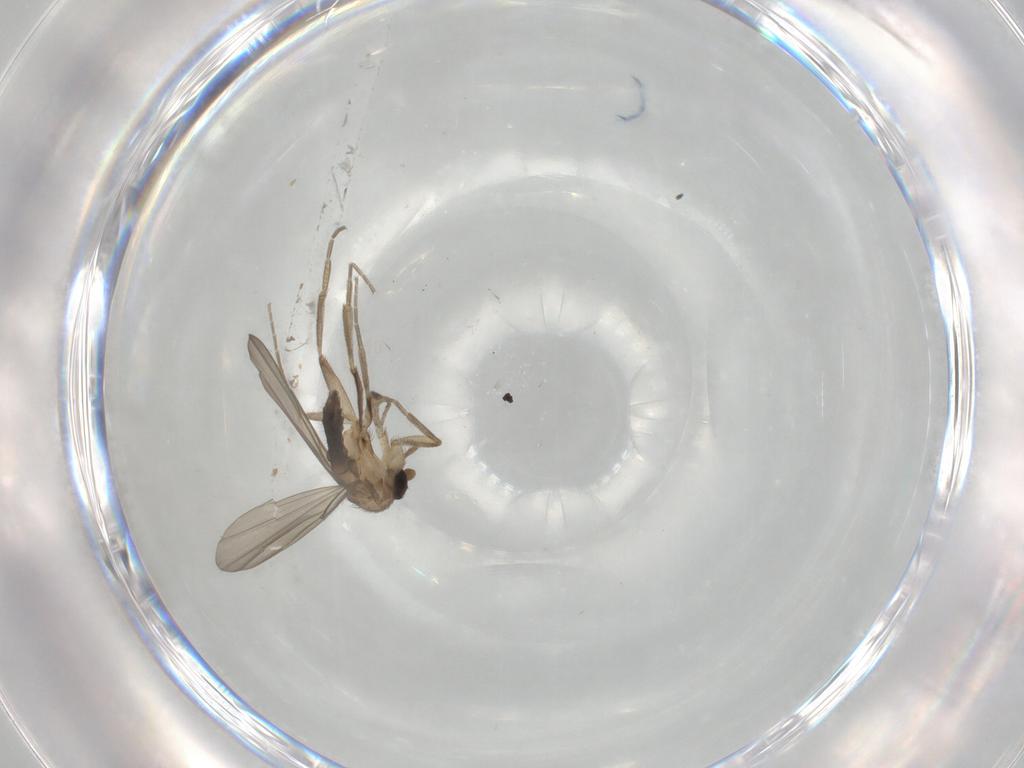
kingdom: Animalia
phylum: Arthropoda
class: Insecta
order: Diptera
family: Phoridae
